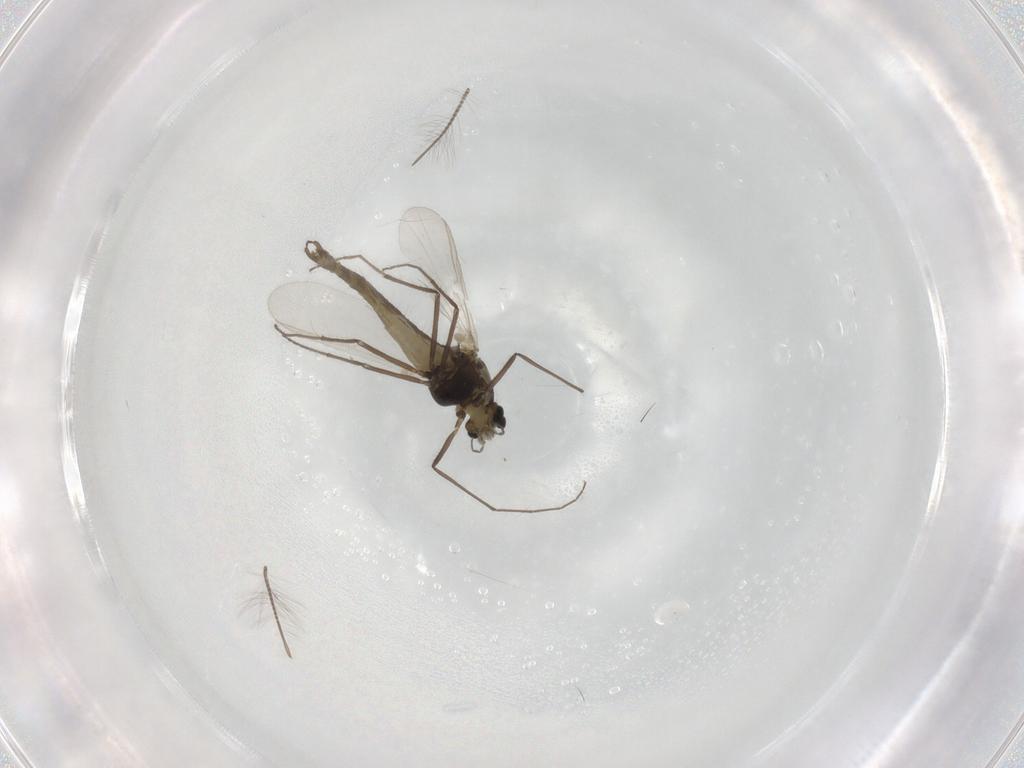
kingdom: Animalia
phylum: Arthropoda
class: Insecta
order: Diptera
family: Chironomidae
